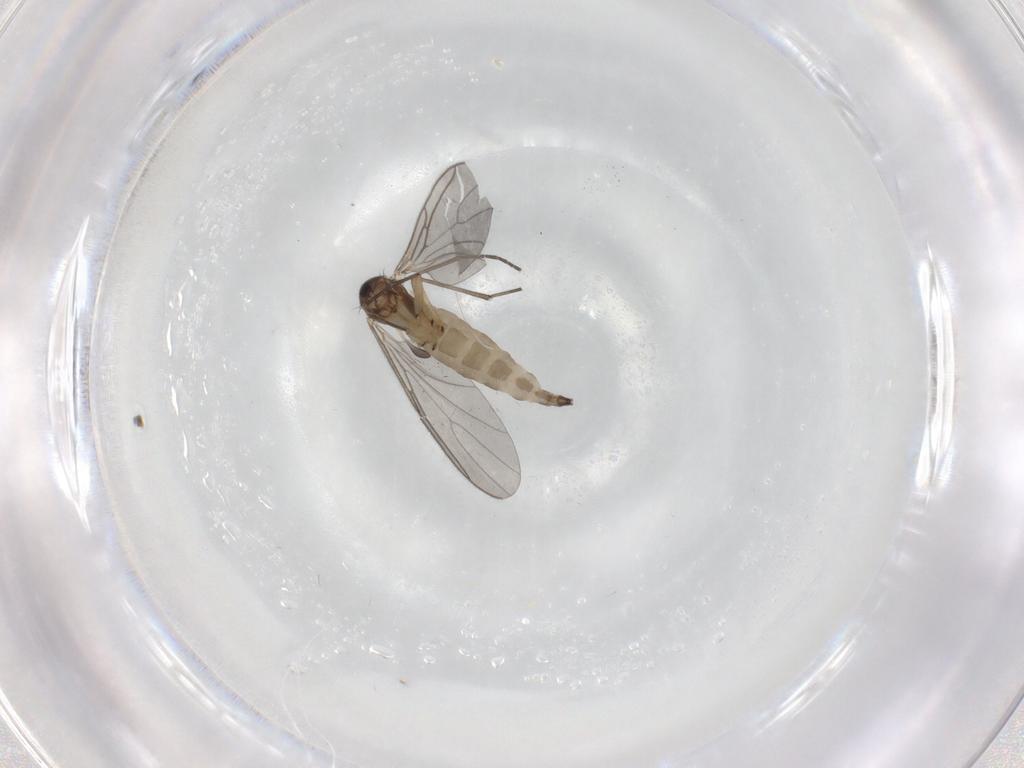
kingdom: Animalia
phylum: Arthropoda
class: Insecta
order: Diptera
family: Sciaridae
